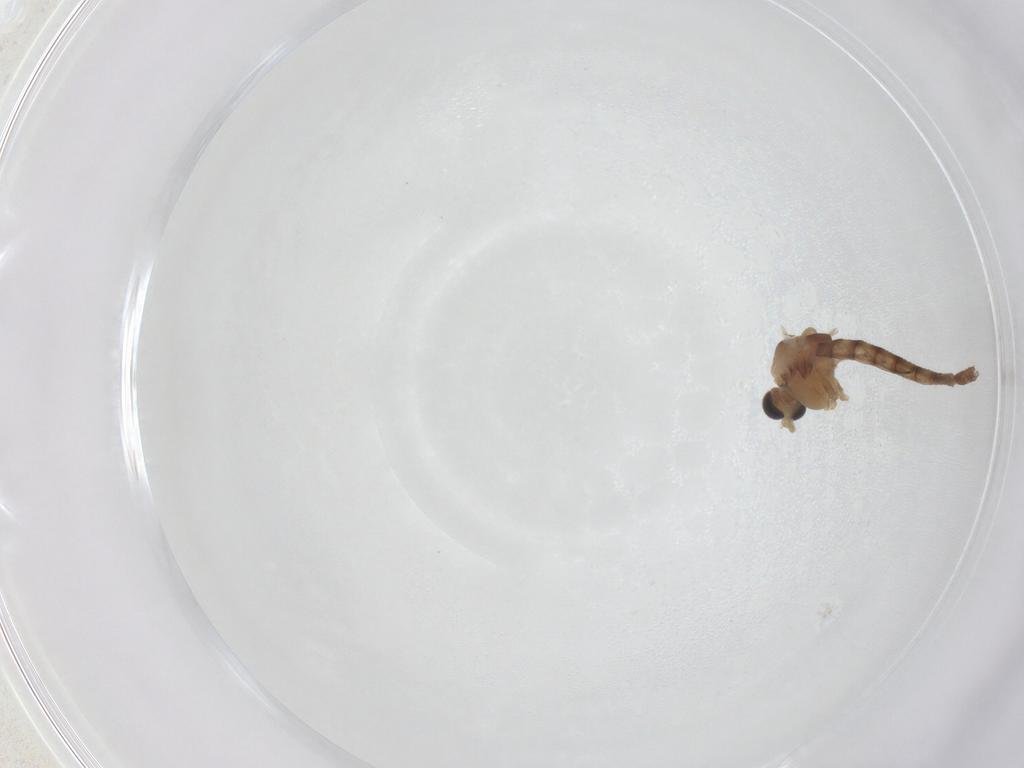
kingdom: Animalia
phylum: Arthropoda
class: Insecta
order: Diptera
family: Chironomidae
